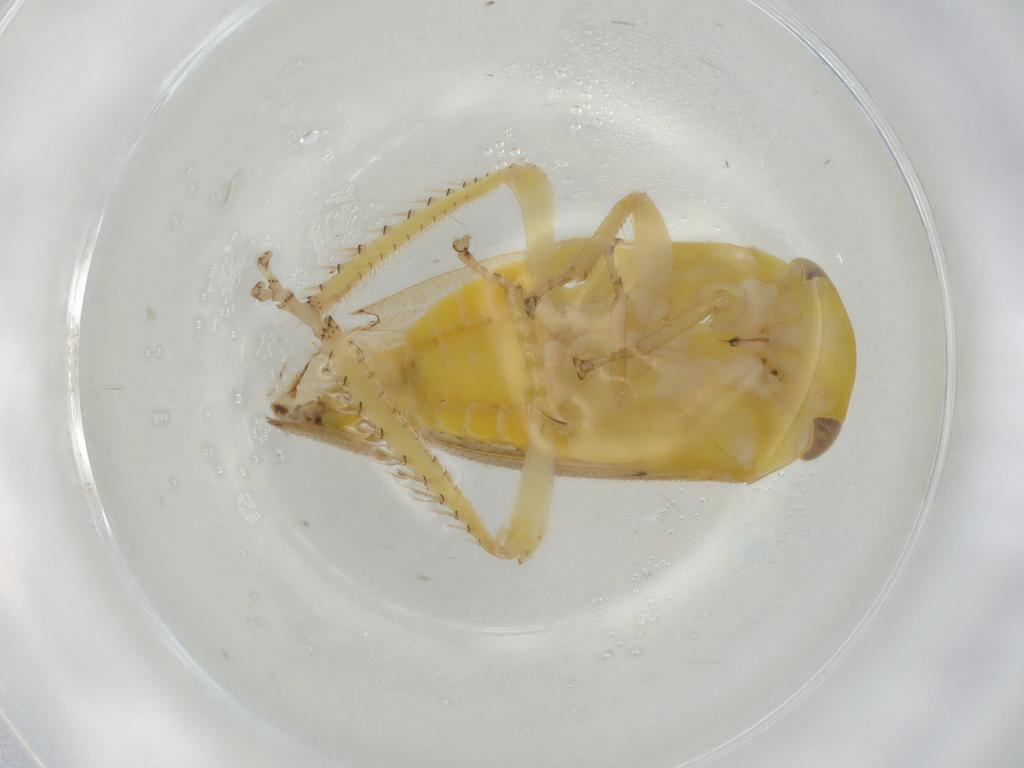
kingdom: Animalia
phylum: Arthropoda
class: Insecta
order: Hemiptera
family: Cicadellidae
